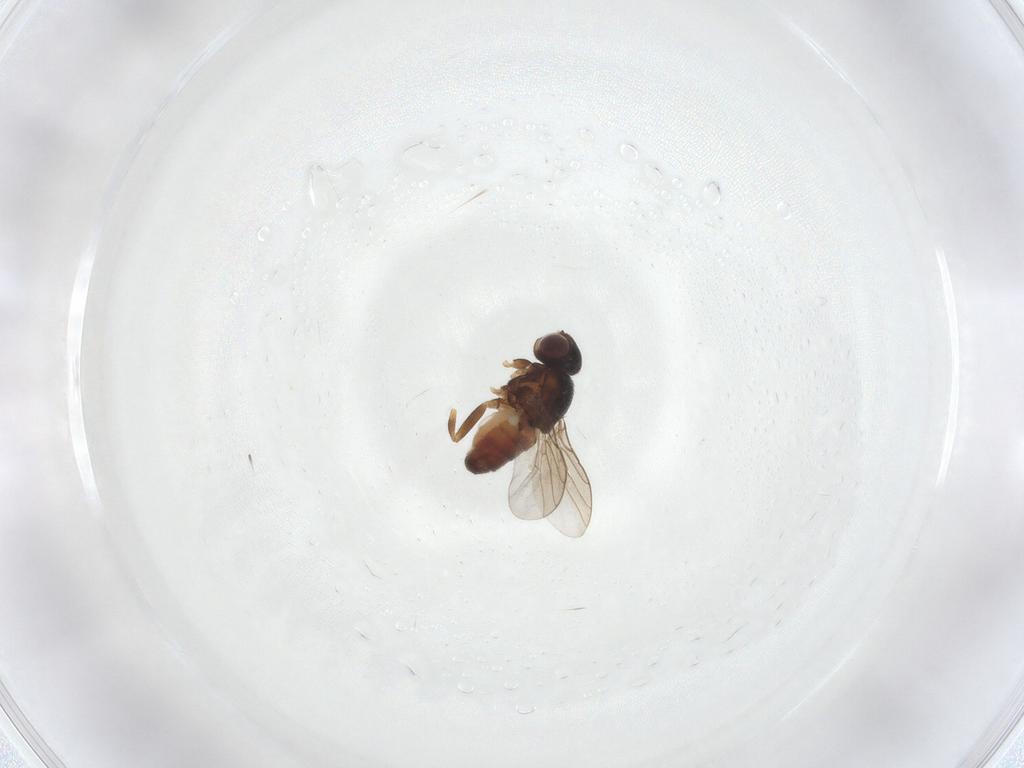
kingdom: Animalia
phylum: Arthropoda
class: Insecta
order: Diptera
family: Chloropidae
